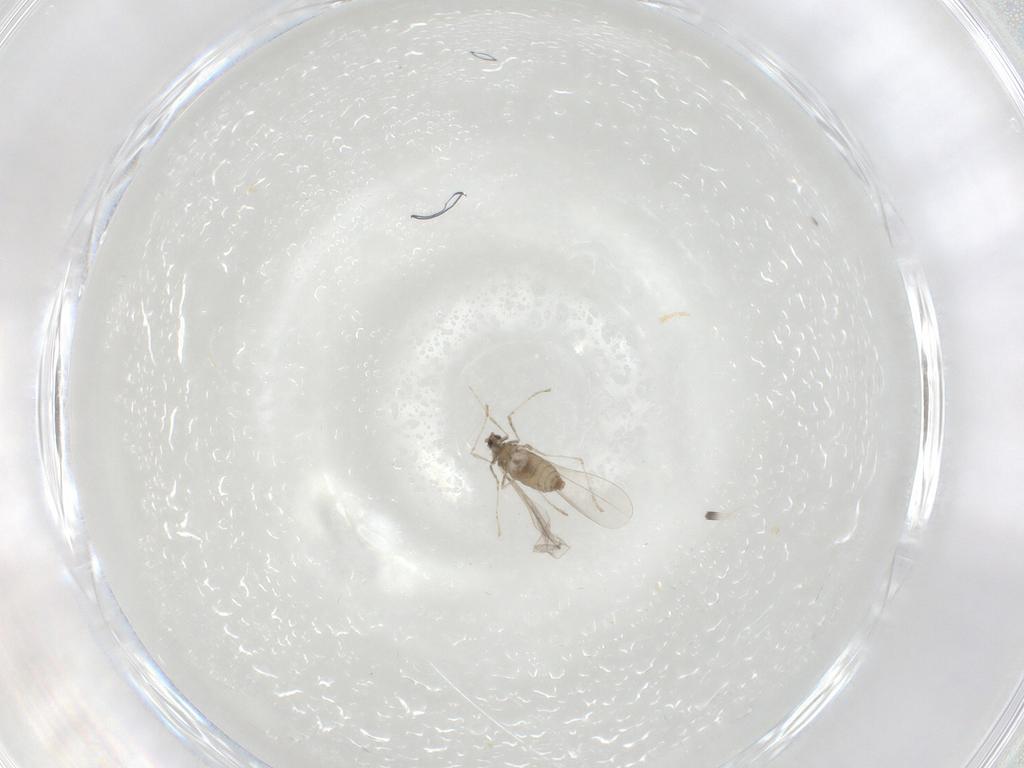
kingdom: Animalia
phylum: Arthropoda
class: Insecta
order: Diptera
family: Cecidomyiidae
